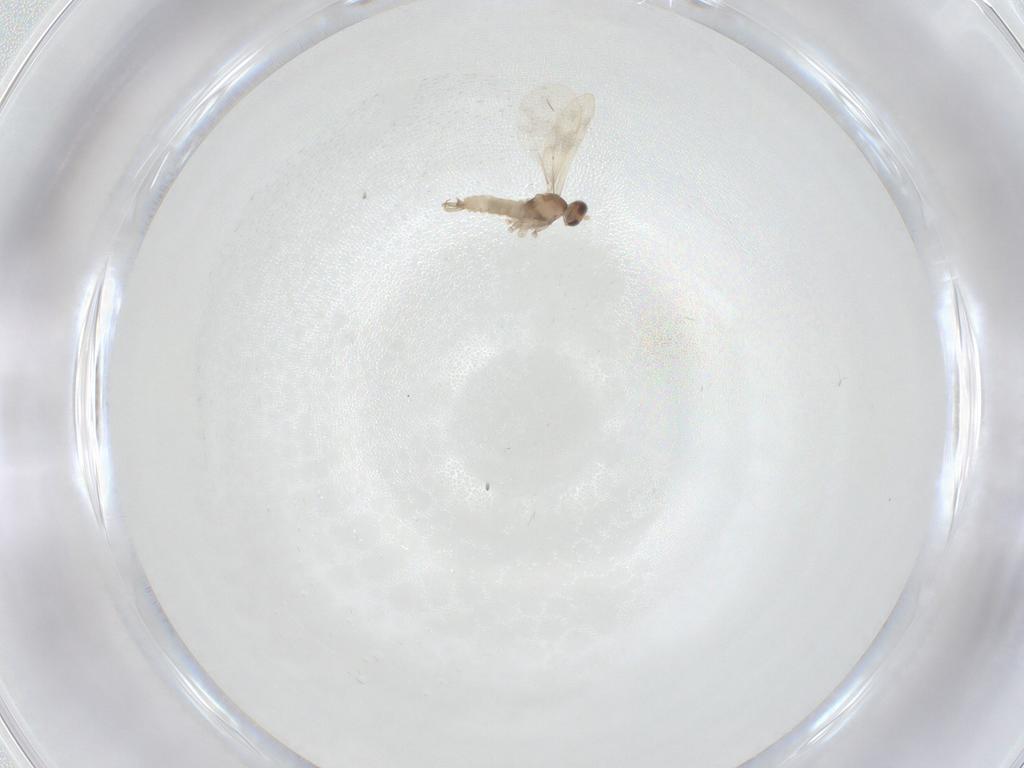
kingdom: Animalia
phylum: Arthropoda
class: Insecta
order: Diptera
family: Cecidomyiidae
